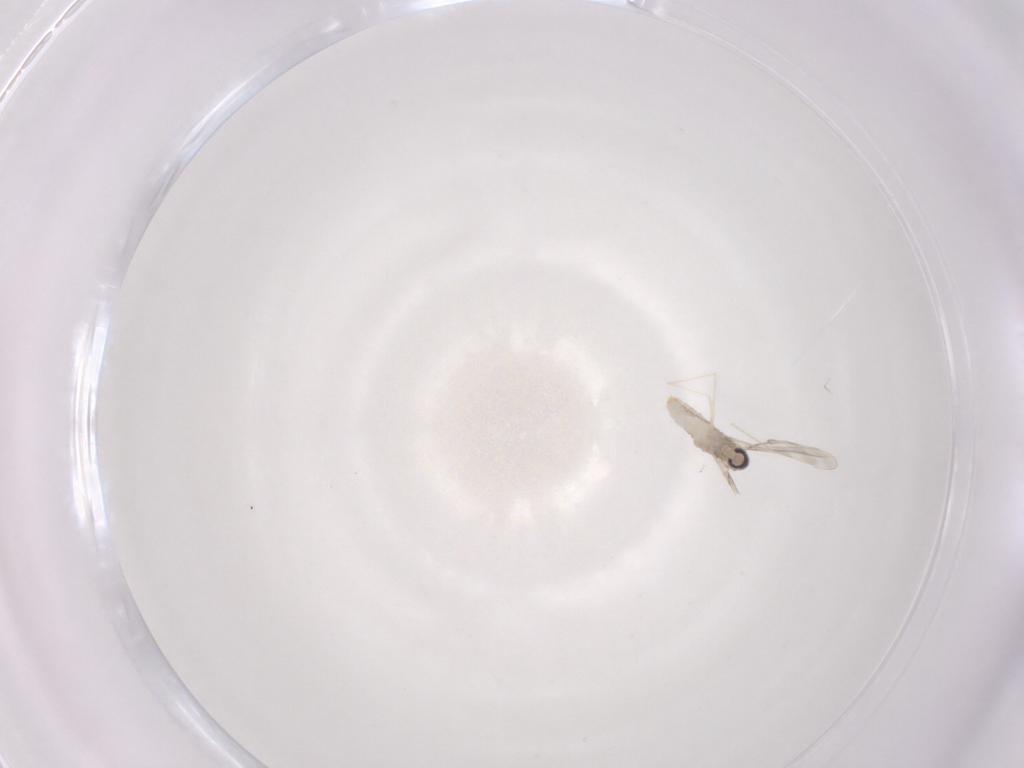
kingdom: Animalia
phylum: Arthropoda
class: Insecta
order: Diptera
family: Cecidomyiidae
